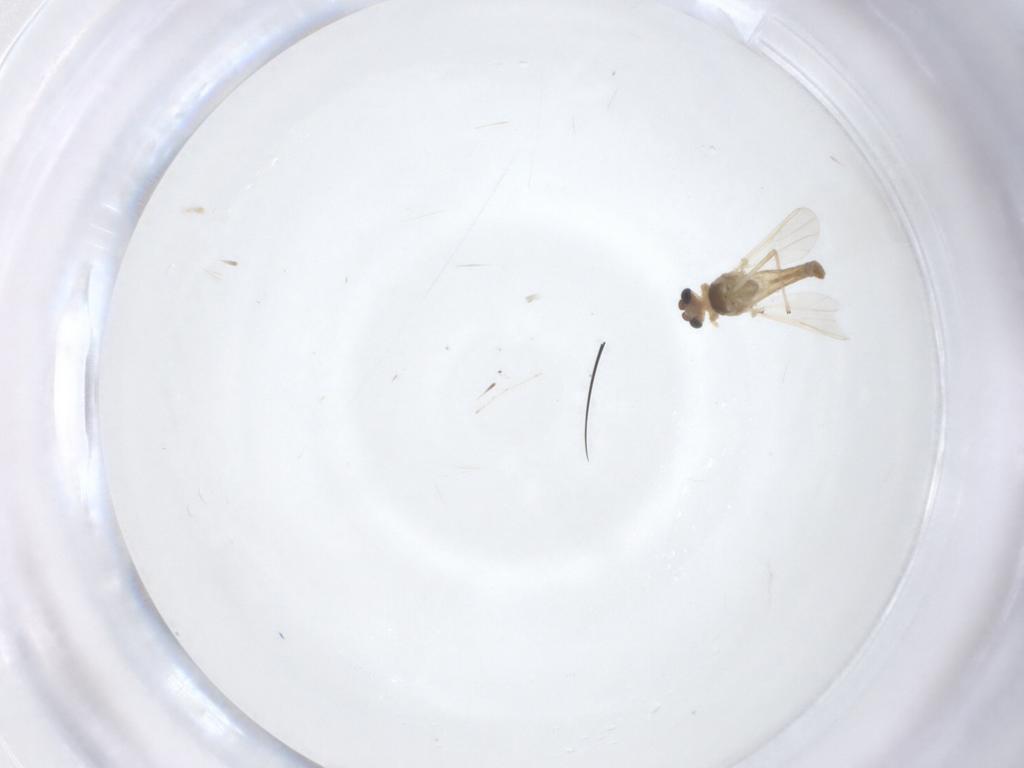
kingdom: Animalia
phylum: Arthropoda
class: Insecta
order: Diptera
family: Chironomidae
